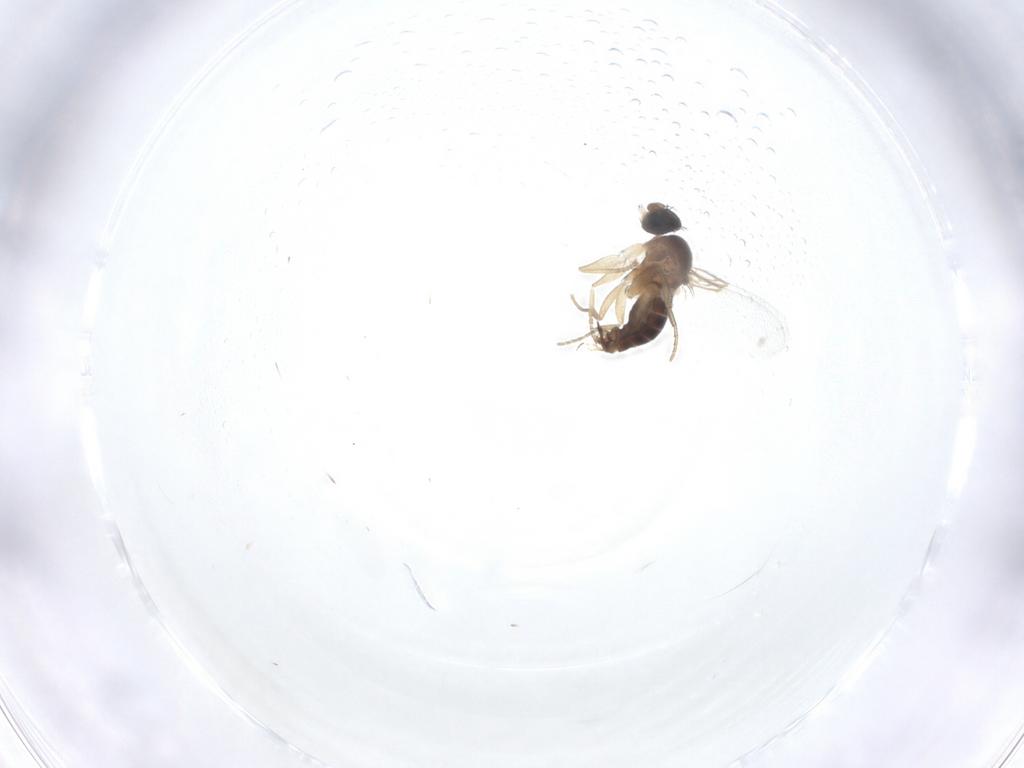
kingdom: Animalia
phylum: Arthropoda
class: Insecta
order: Diptera
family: Phoridae
